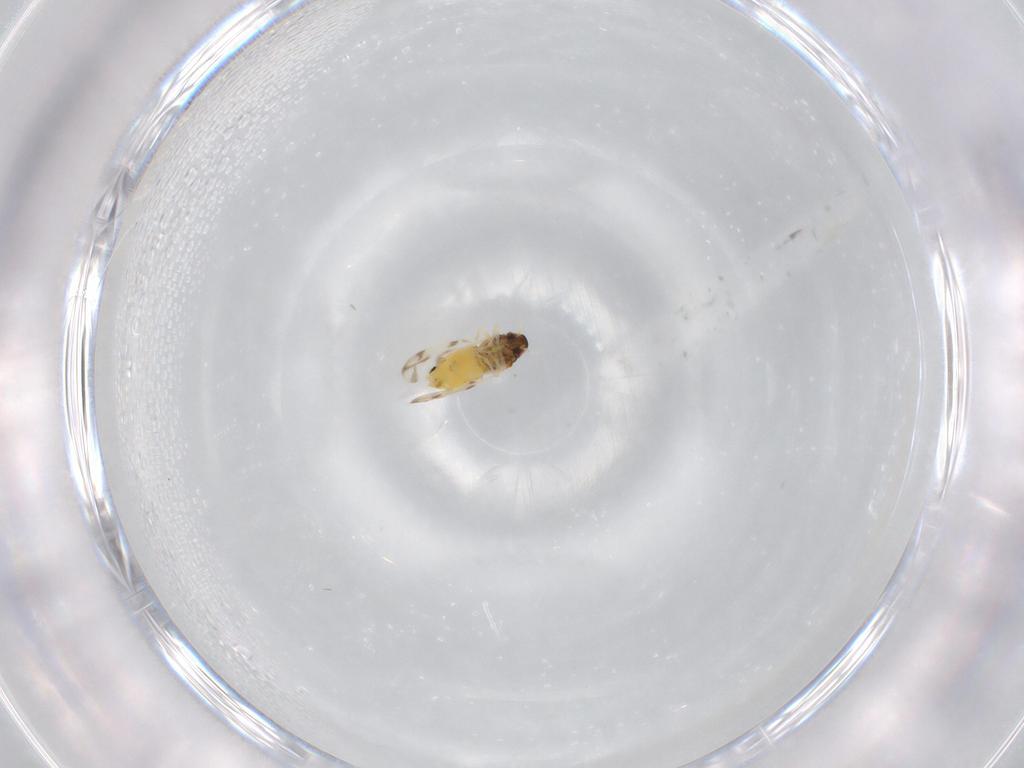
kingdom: Animalia
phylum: Arthropoda
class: Insecta
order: Hemiptera
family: Aleyrodidae
